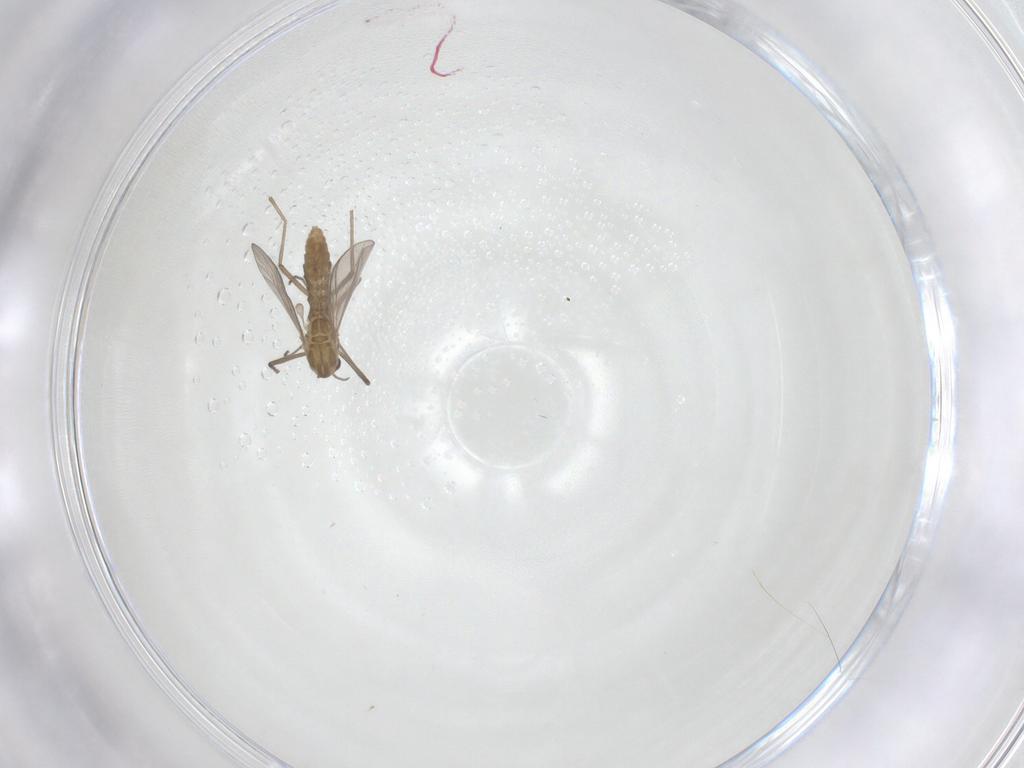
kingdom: Animalia
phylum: Arthropoda
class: Insecta
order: Diptera
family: Chironomidae
